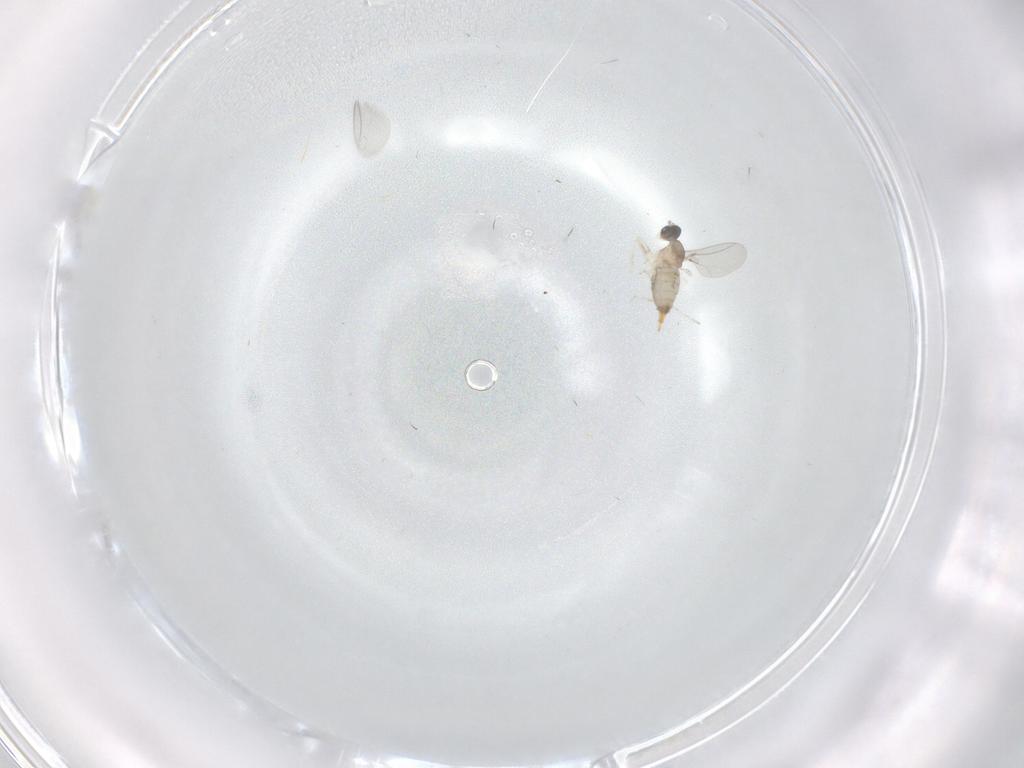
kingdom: Animalia
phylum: Arthropoda
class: Insecta
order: Diptera
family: Cecidomyiidae
